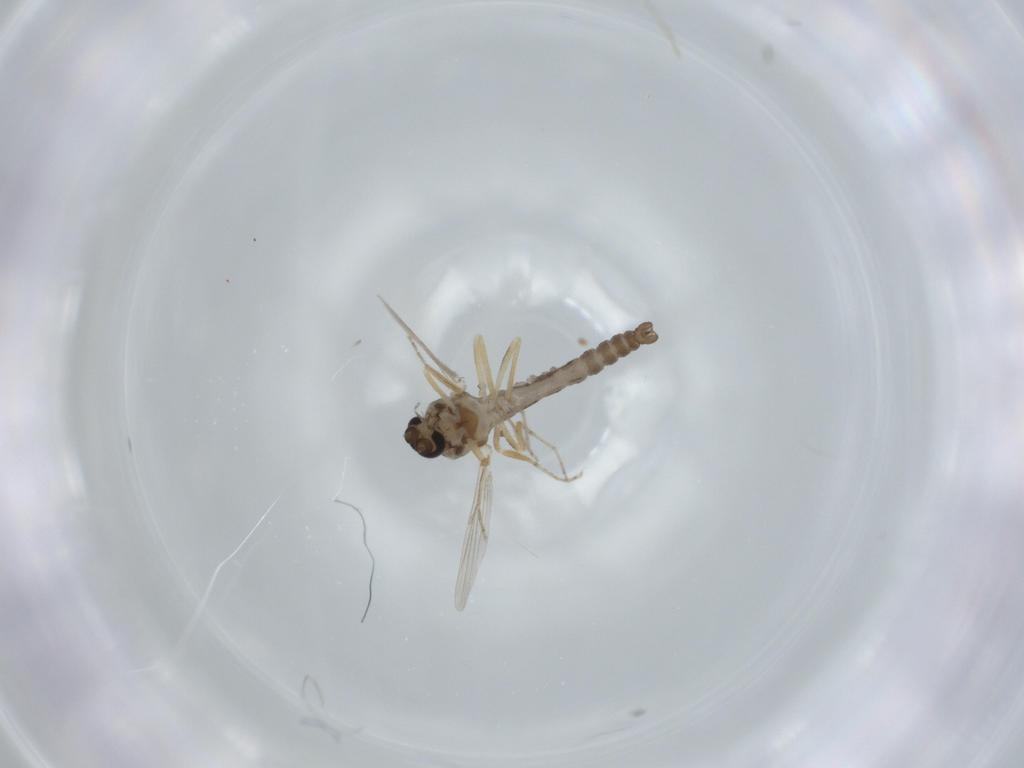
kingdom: Animalia
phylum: Arthropoda
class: Insecta
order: Diptera
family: Ceratopogonidae
